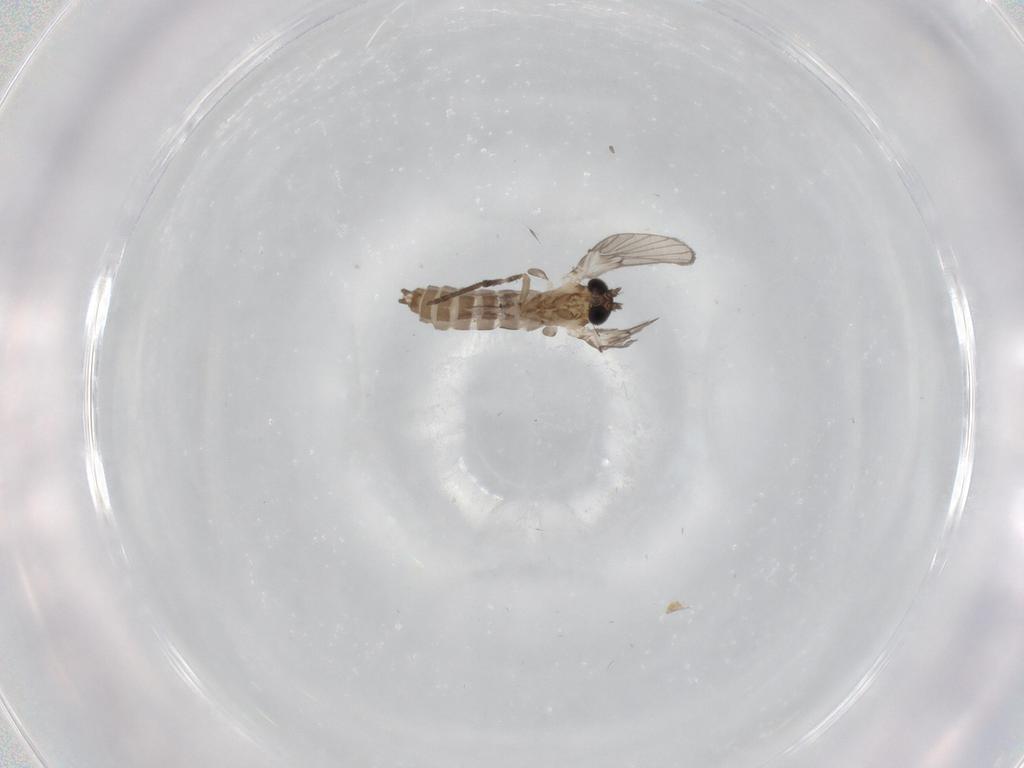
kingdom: Animalia
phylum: Arthropoda
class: Insecta
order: Diptera
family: Psychodidae
